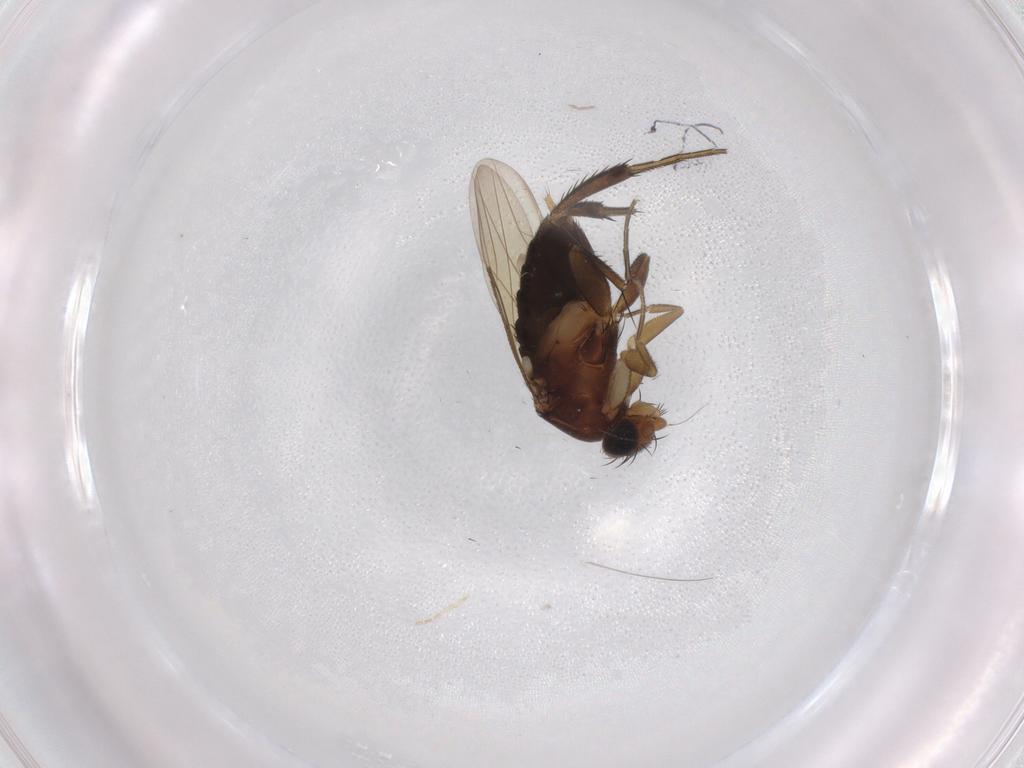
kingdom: Animalia
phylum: Arthropoda
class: Insecta
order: Diptera
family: Phoridae
